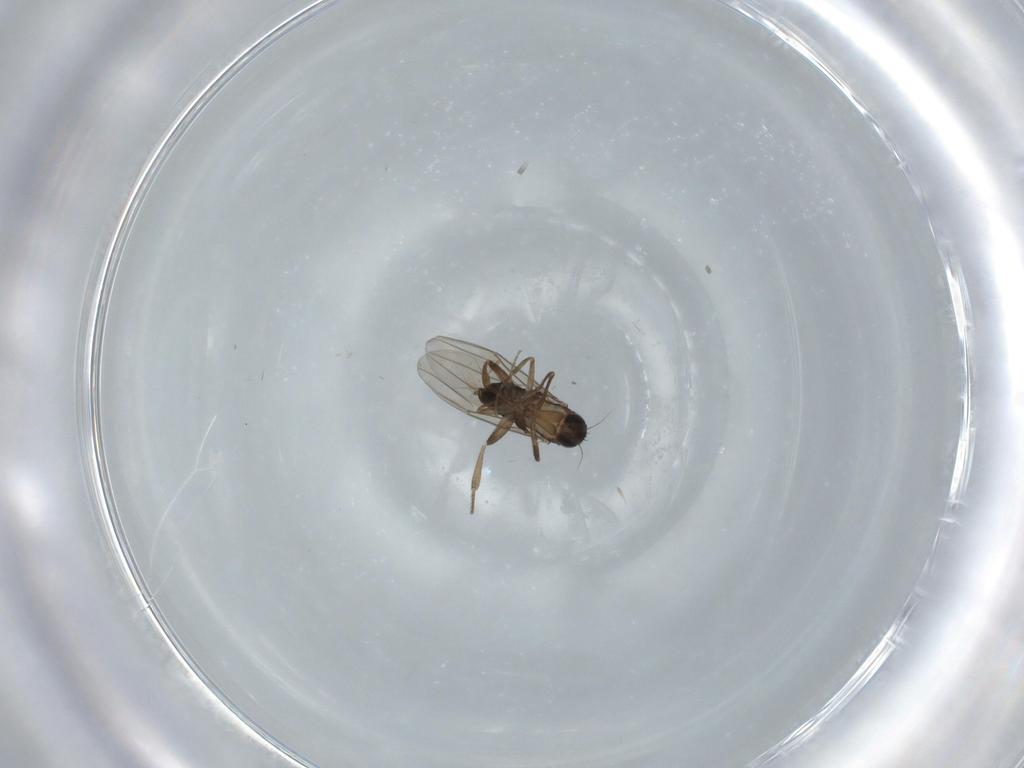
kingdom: Animalia
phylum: Arthropoda
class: Insecta
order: Diptera
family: Drosophilidae
